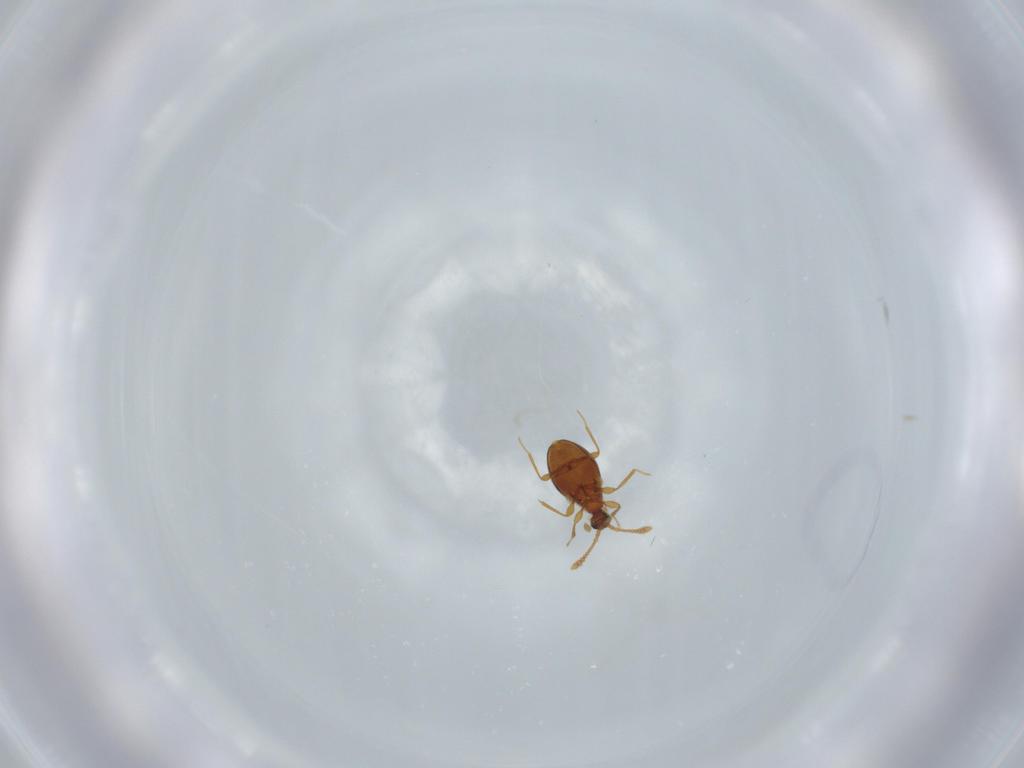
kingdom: Animalia
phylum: Arthropoda
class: Insecta
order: Coleoptera
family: Staphylinidae
